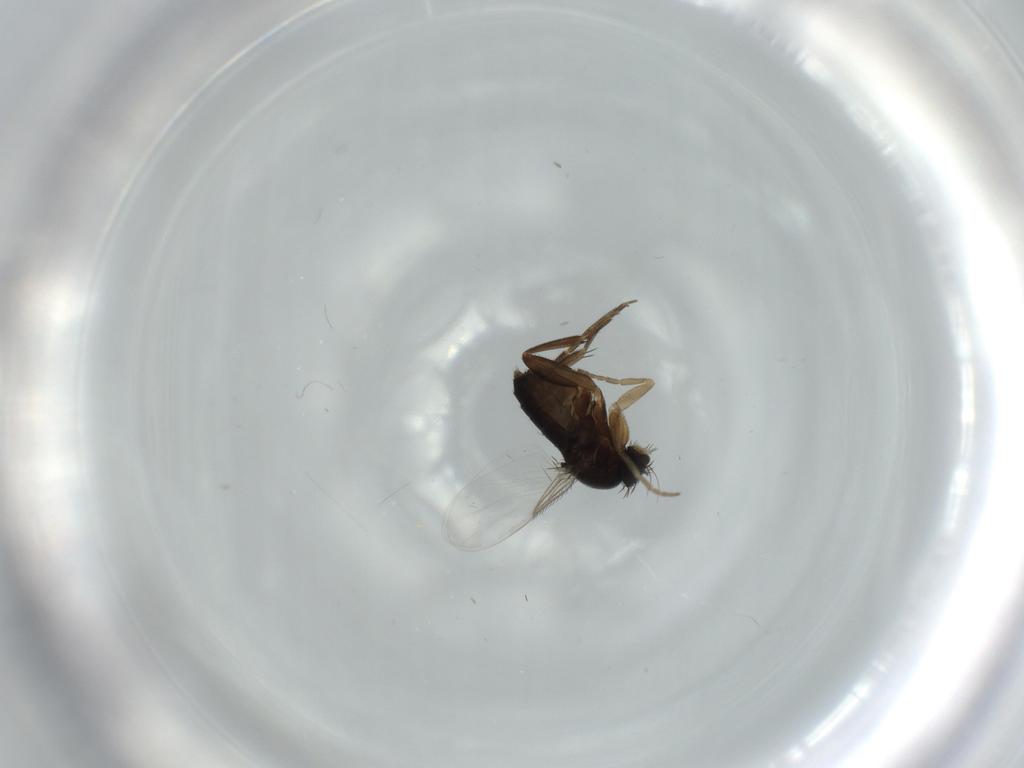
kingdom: Animalia
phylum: Arthropoda
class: Insecta
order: Diptera
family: Phoridae
